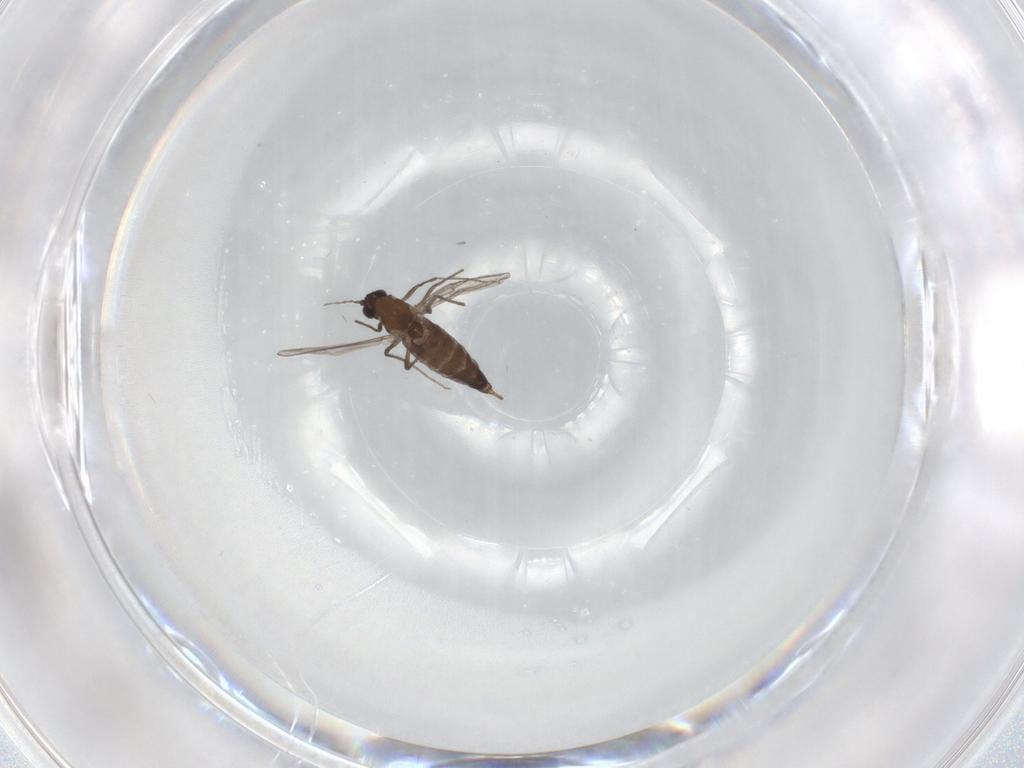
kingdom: Animalia
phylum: Arthropoda
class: Insecta
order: Diptera
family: Chironomidae
